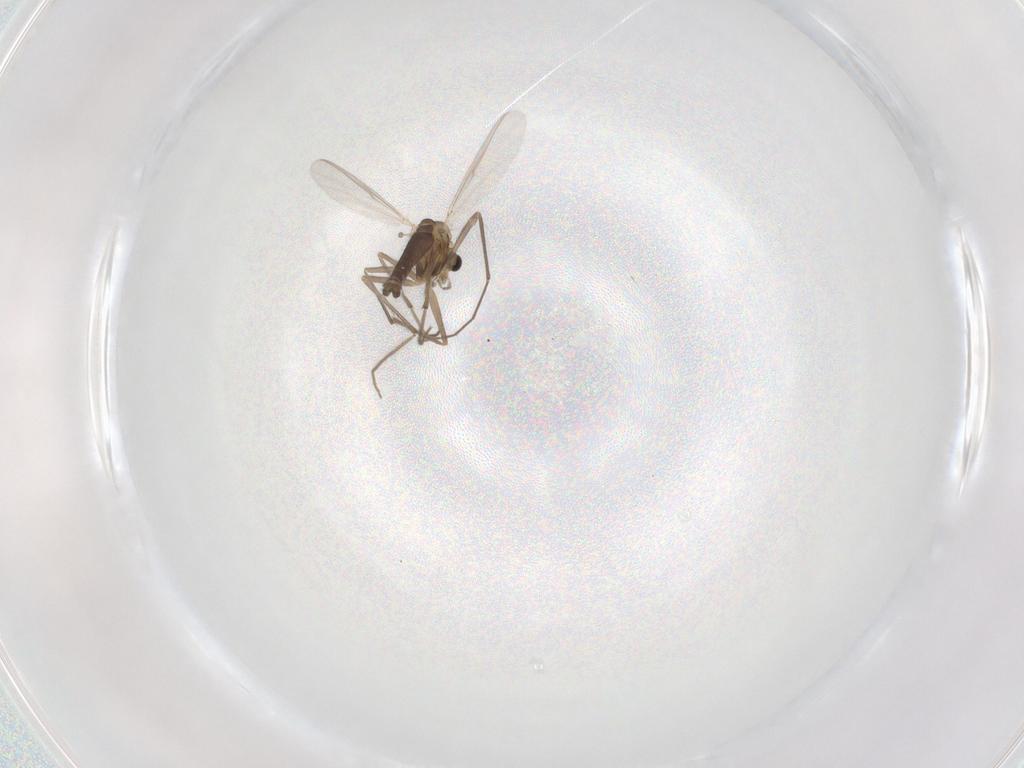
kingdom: Animalia
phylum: Arthropoda
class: Insecta
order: Diptera
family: Chironomidae
